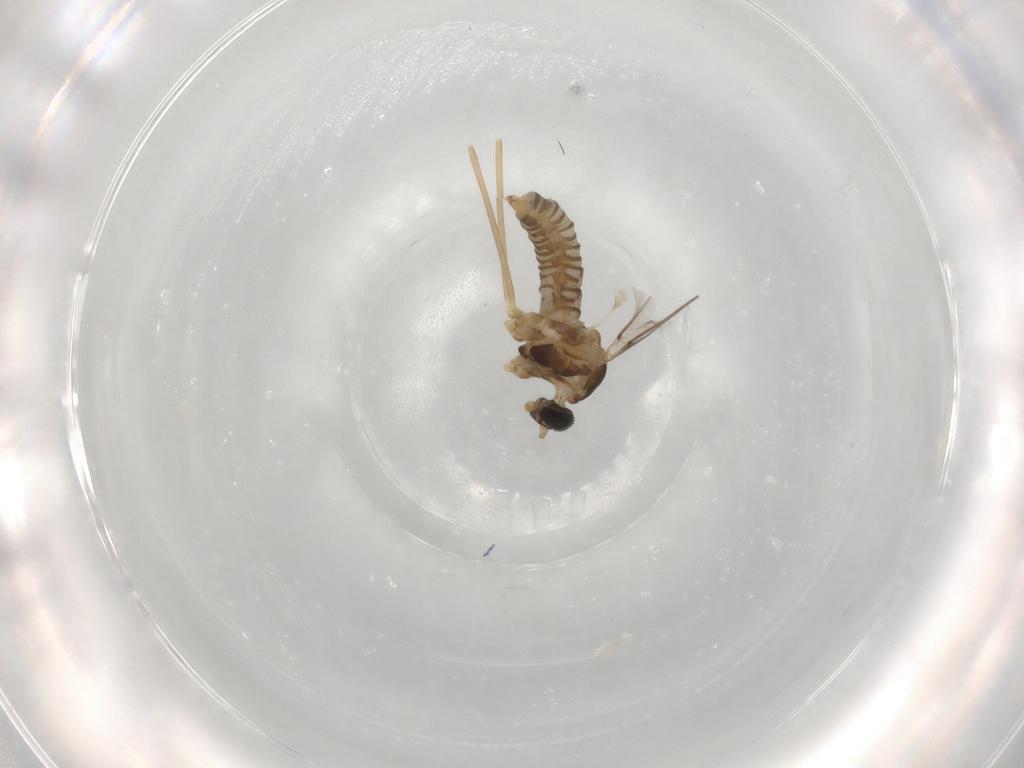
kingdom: Animalia
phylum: Arthropoda
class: Insecta
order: Diptera
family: Cecidomyiidae
